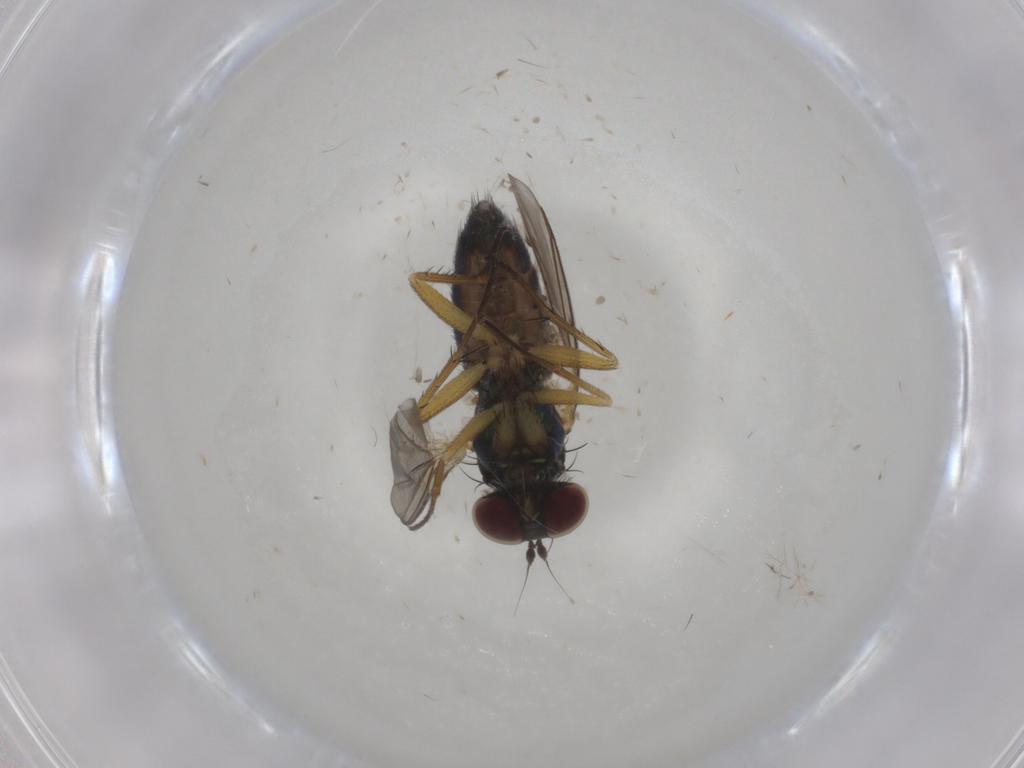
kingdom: Animalia
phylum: Arthropoda
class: Insecta
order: Diptera
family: Dolichopodidae
